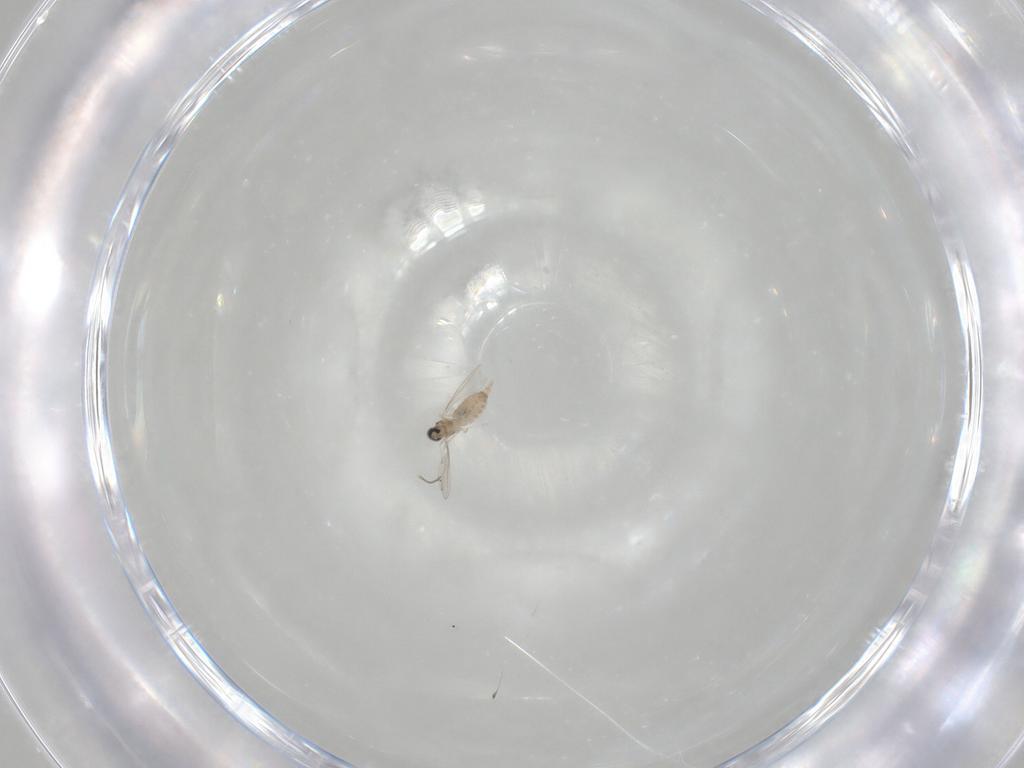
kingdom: Animalia
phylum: Arthropoda
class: Insecta
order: Diptera
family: Cecidomyiidae
